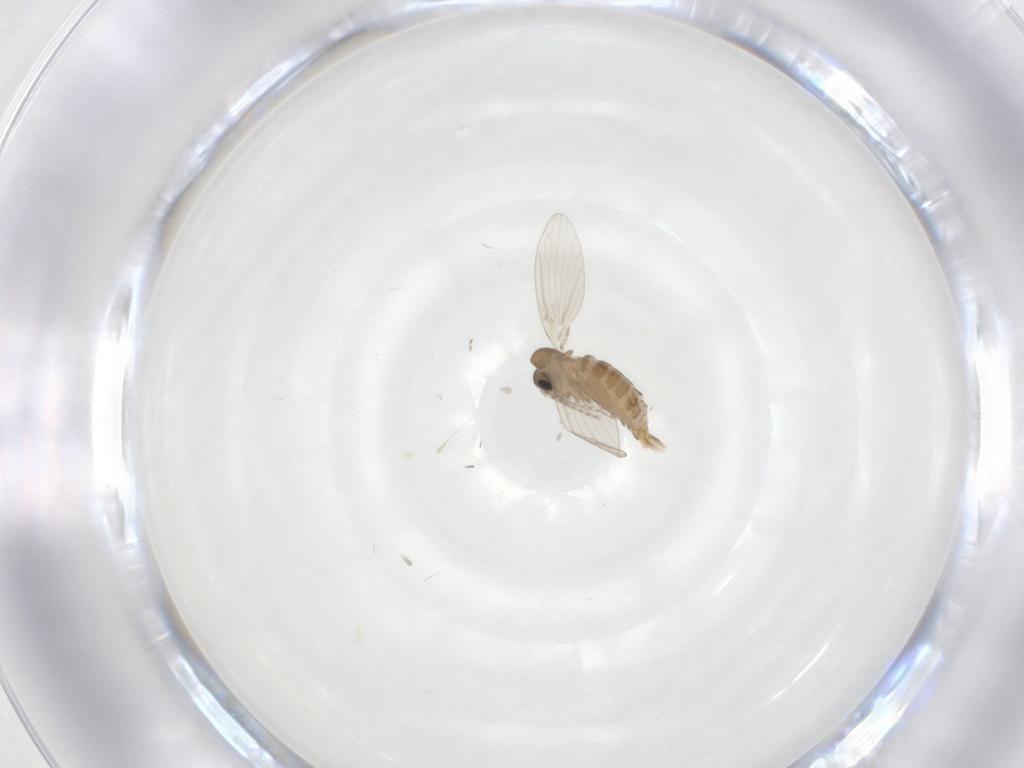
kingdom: Animalia
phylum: Arthropoda
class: Insecta
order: Diptera
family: Psychodidae
